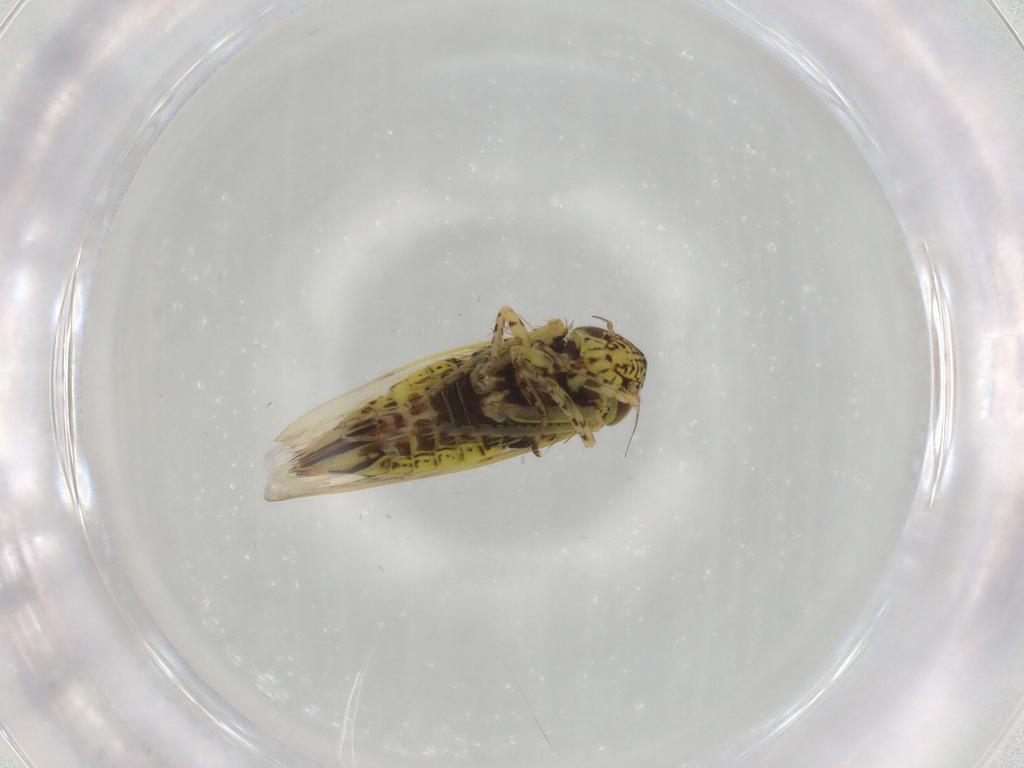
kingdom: Animalia
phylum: Arthropoda
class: Insecta
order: Hemiptera
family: Cicadellidae
